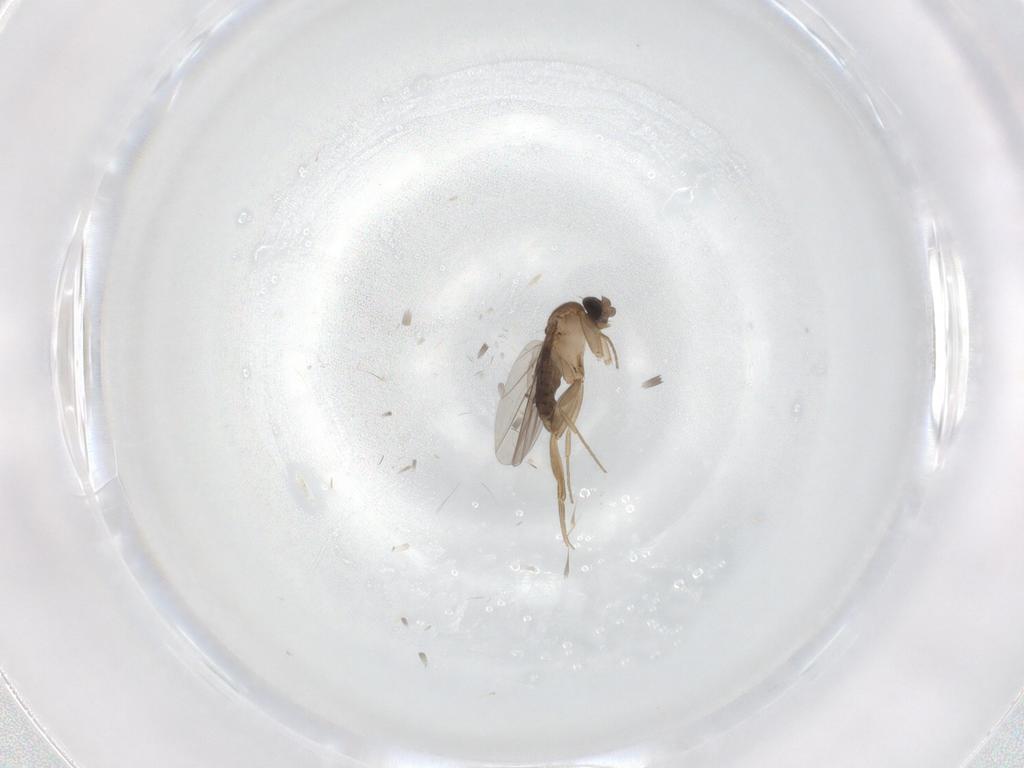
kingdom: Animalia
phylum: Arthropoda
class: Insecta
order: Diptera
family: Phoridae
